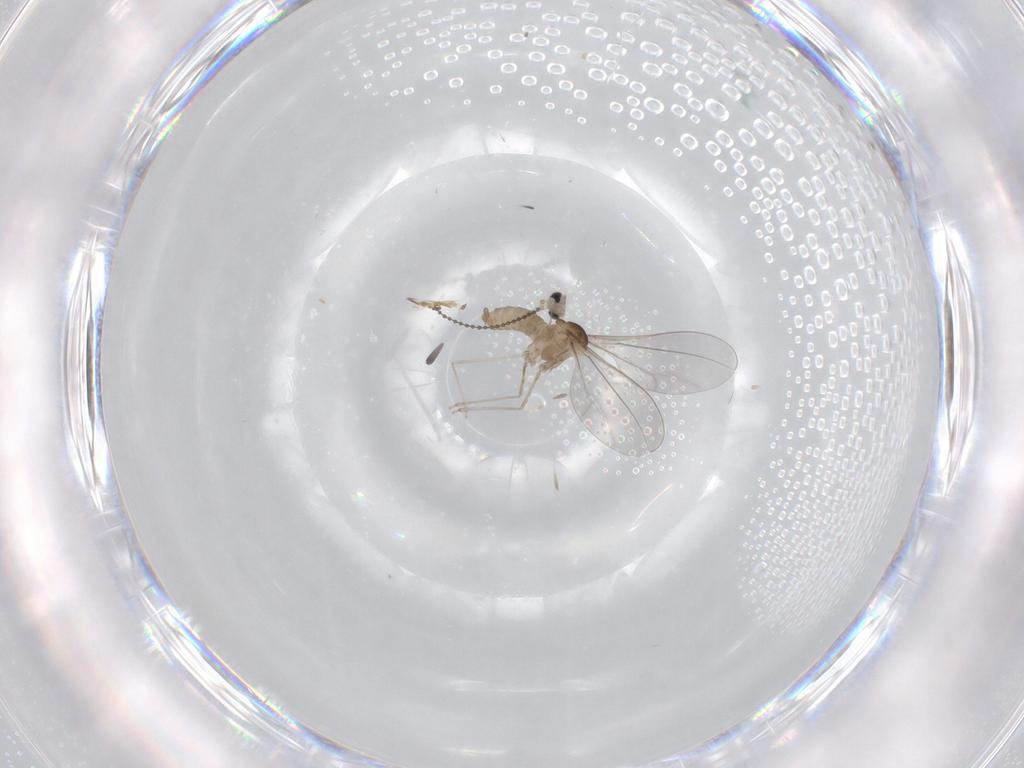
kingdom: Animalia
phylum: Arthropoda
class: Insecta
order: Diptera
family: Cecidomyiidae
